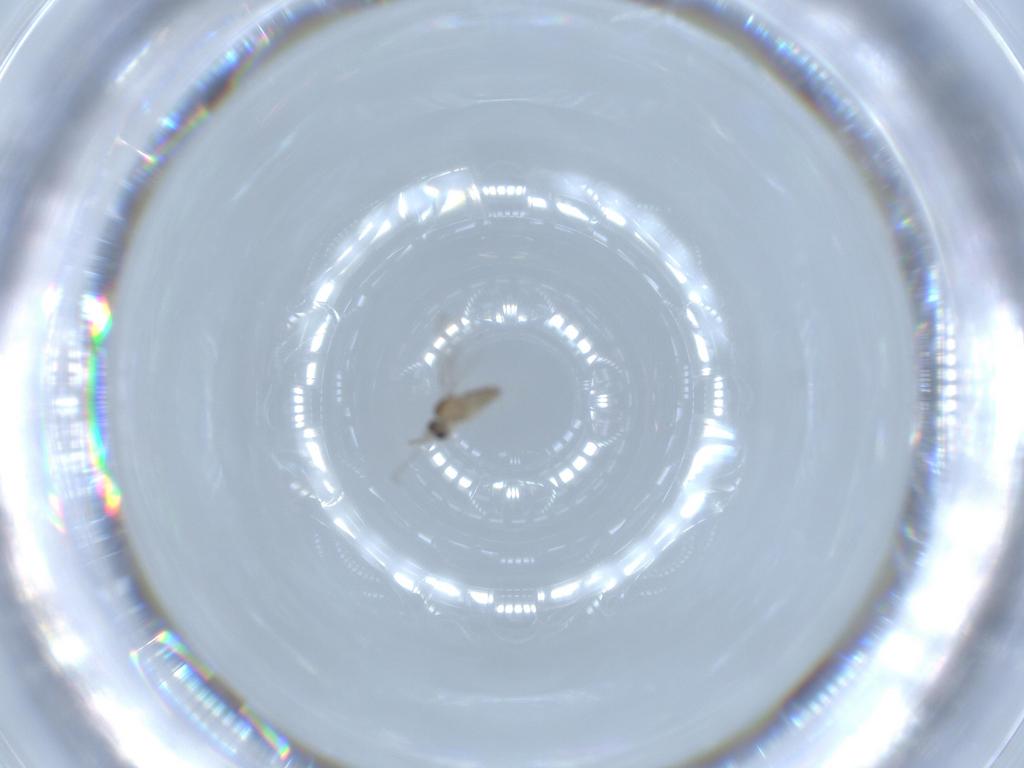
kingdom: Animalia
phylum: Arthropoda
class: Insecta
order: Diptera
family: Cecidomyiidae
